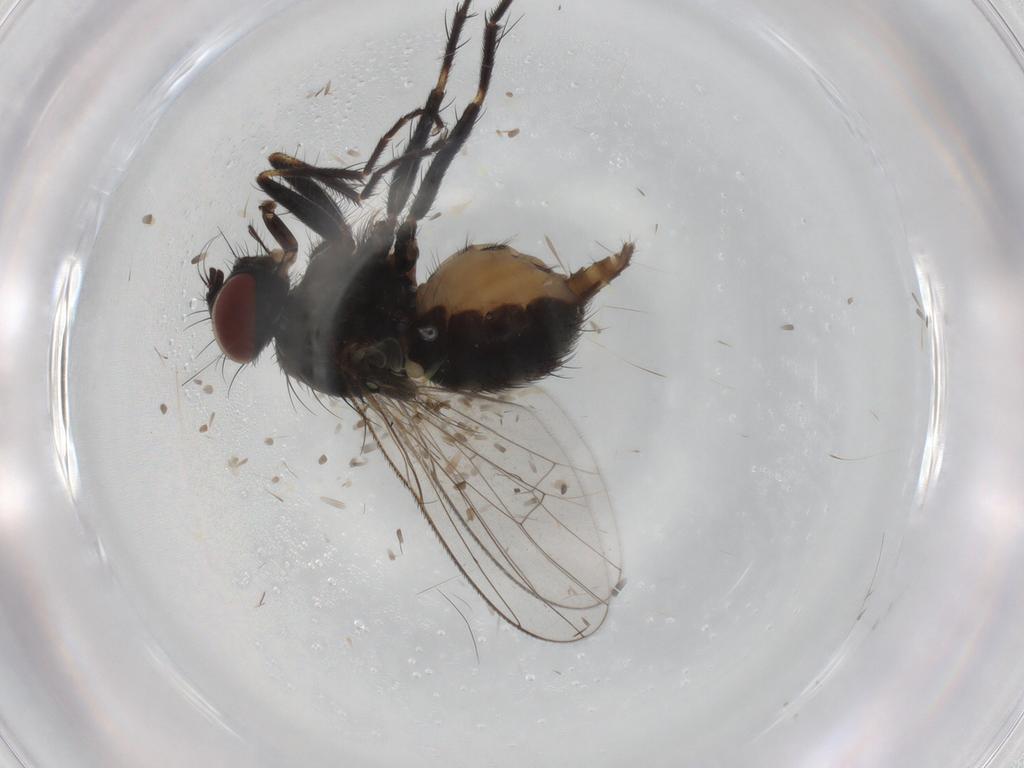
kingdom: Animalia
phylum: Arthropoda
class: Insecta
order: Diptera
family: Muscidae
